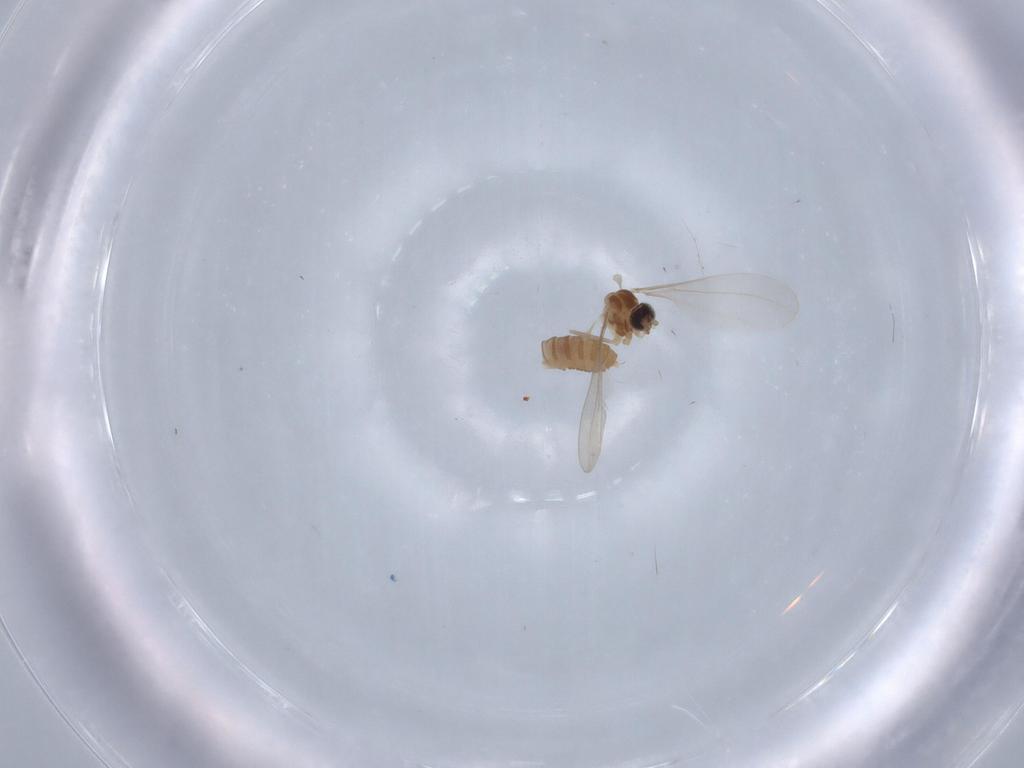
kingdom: Animalia
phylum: Arthropoda
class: Insecta
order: Diptera
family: Cecidomyiidae
